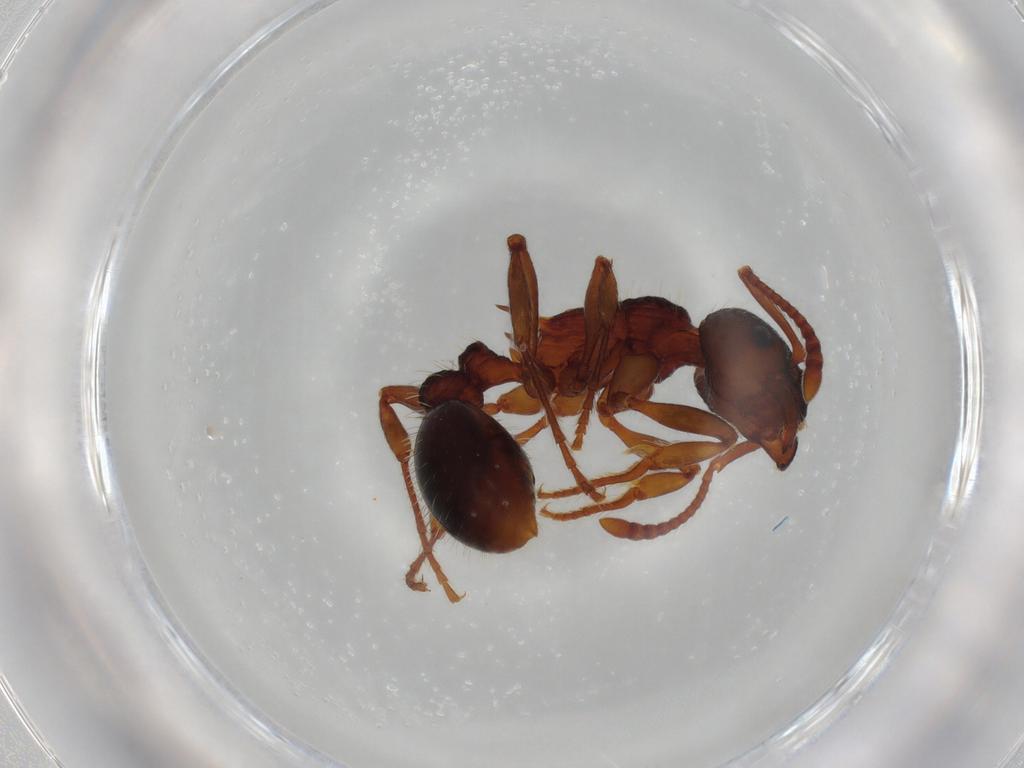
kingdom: Animalia
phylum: Arthropoda
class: Insecta
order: Hymenoptera
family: Formicidae
